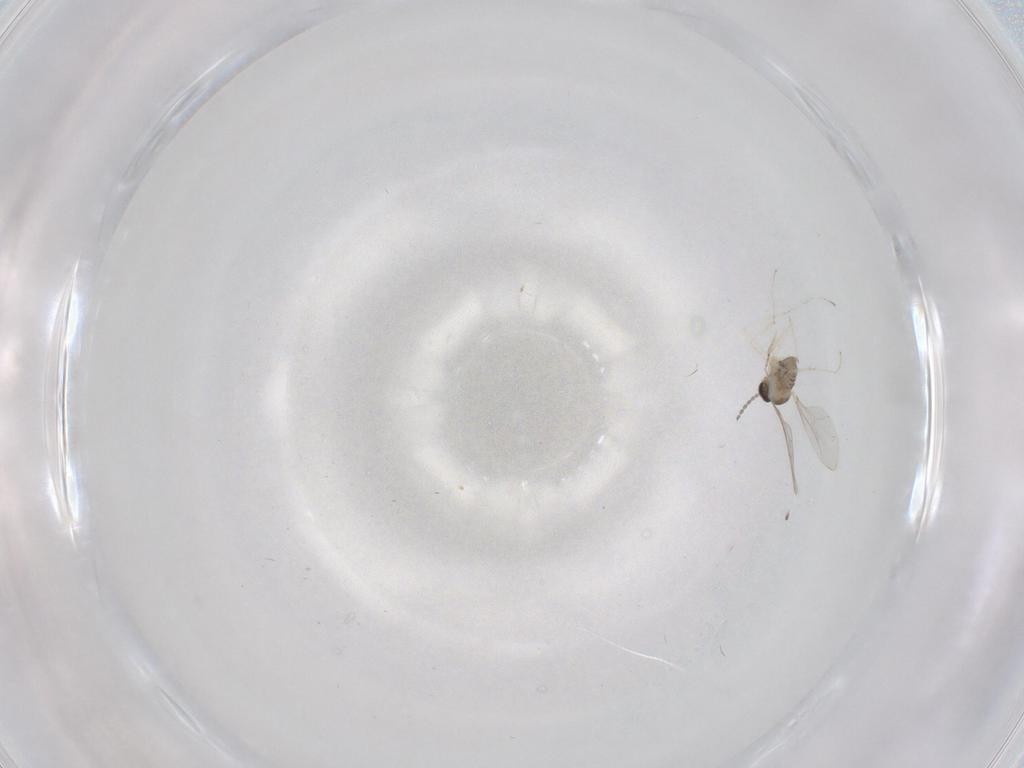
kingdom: Animalia
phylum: Arthropoda
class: Insecta
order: Diptera
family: Cecidomyiidae
